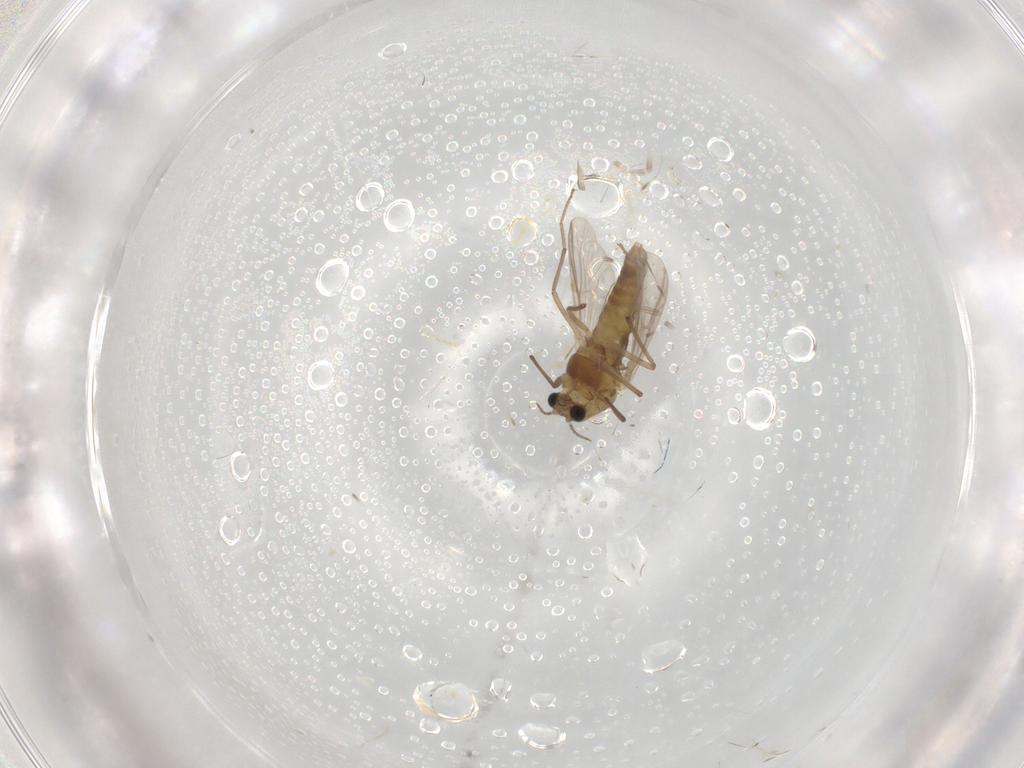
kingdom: Animalia
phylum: Arthropoda
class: Insecta
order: Diptera
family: Chironomidae
